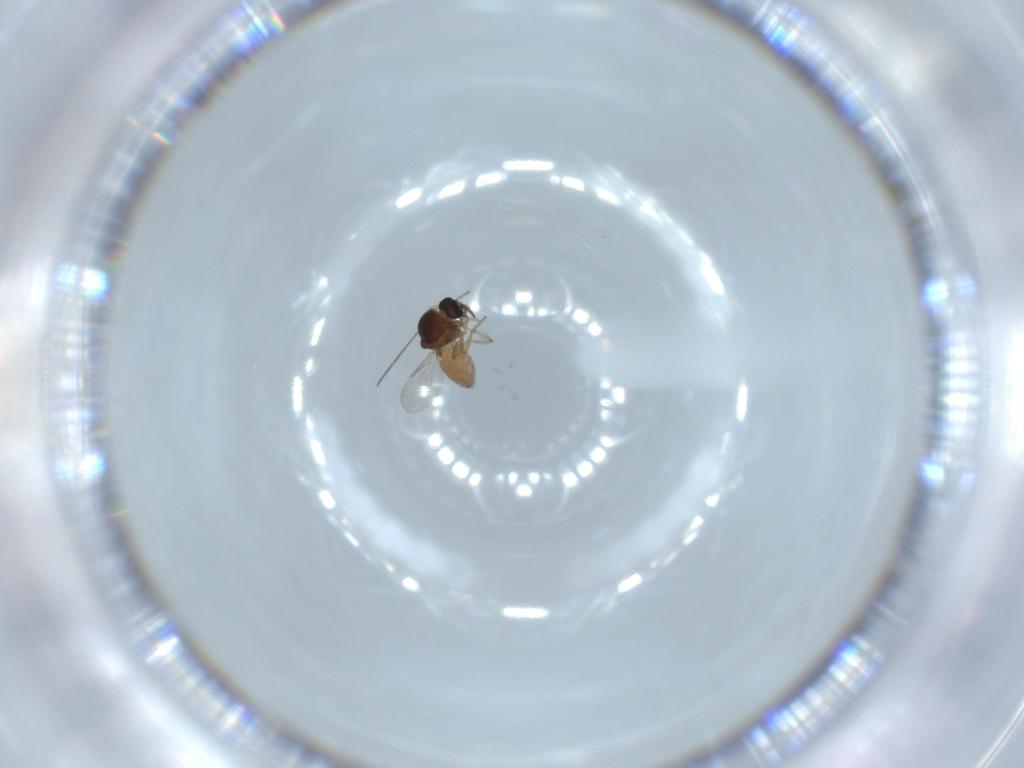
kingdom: Animalia
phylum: Arthropoda
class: Insecta
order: Diptera
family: Ceratopogonidae
